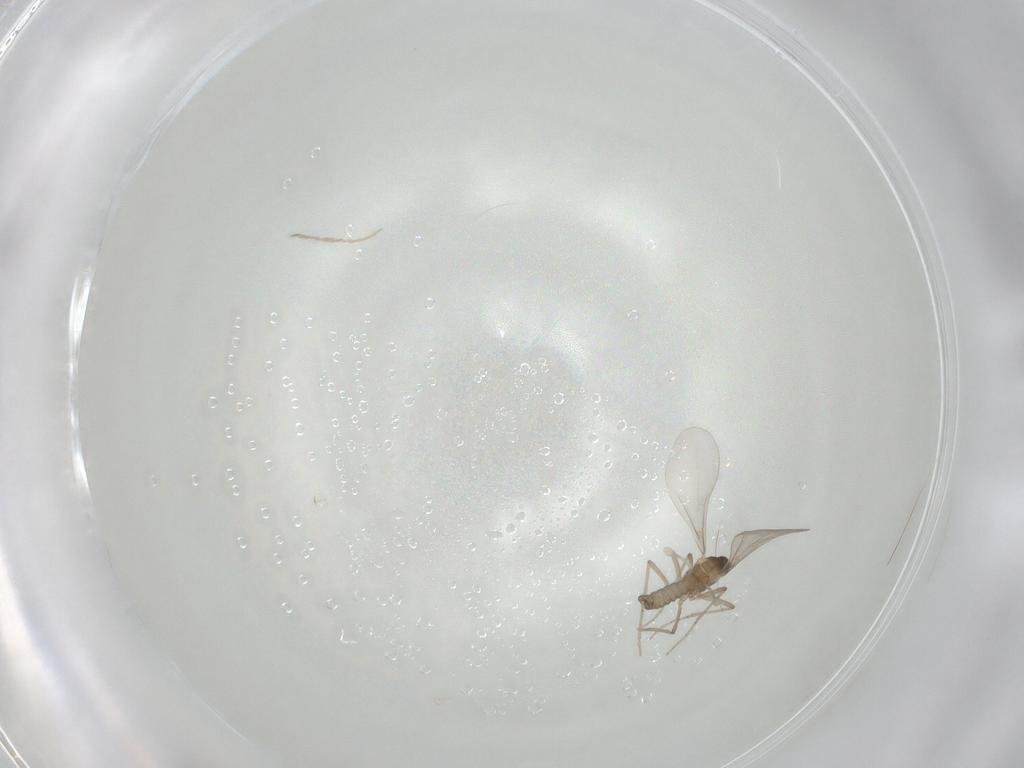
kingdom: Animalia
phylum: Arthropoda
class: Insecta
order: Diptera
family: Cecidomyiidae
